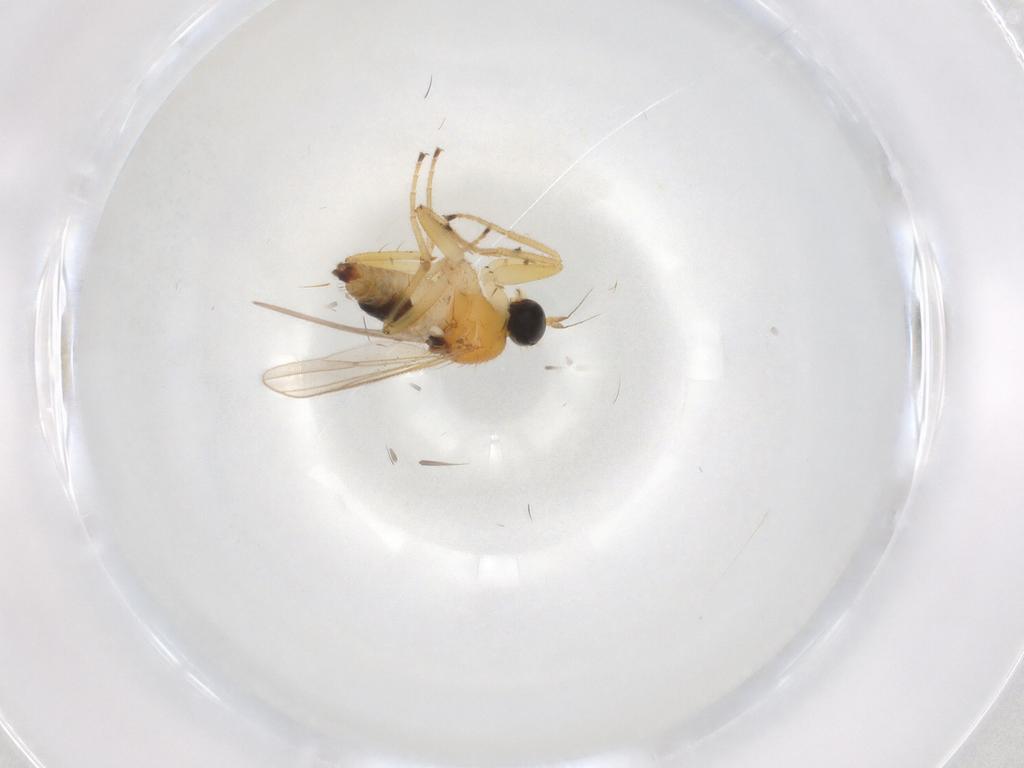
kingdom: Animalia
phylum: Arthropoda
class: Insecta
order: Diptera
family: Hybotidae
